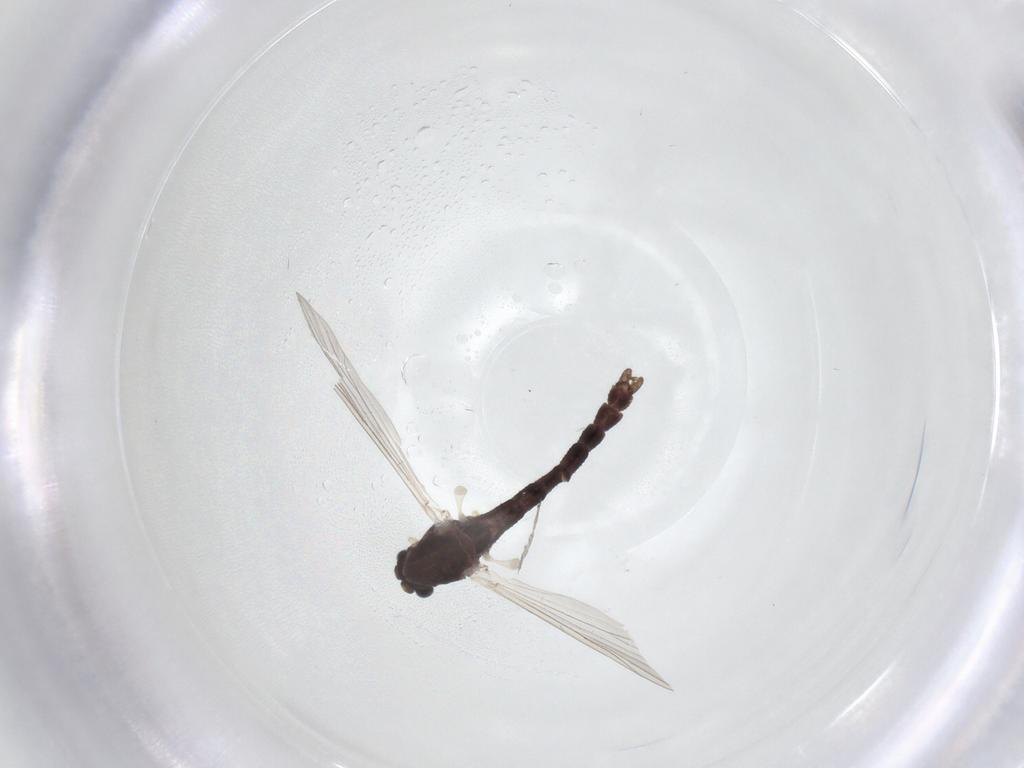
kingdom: Animalia
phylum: Arthropoda
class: Insecta
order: Diptera
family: Chironomidae
